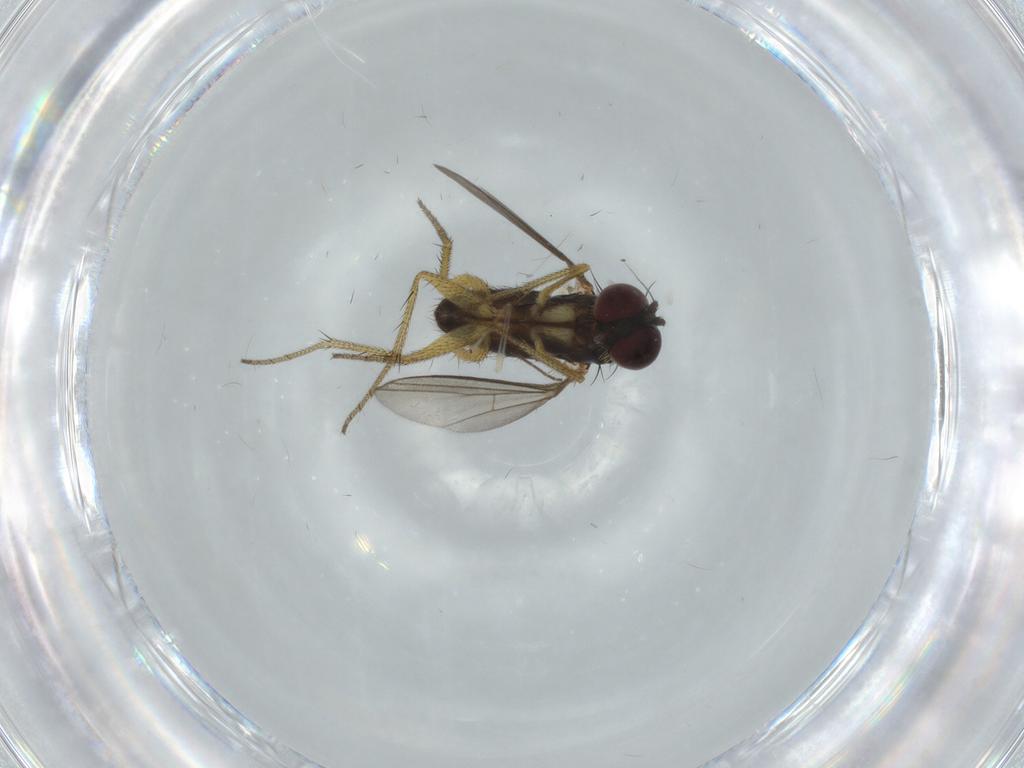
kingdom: Animalia
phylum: Arthropoda
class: Insecta
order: Diptera
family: Dolichopodidae
